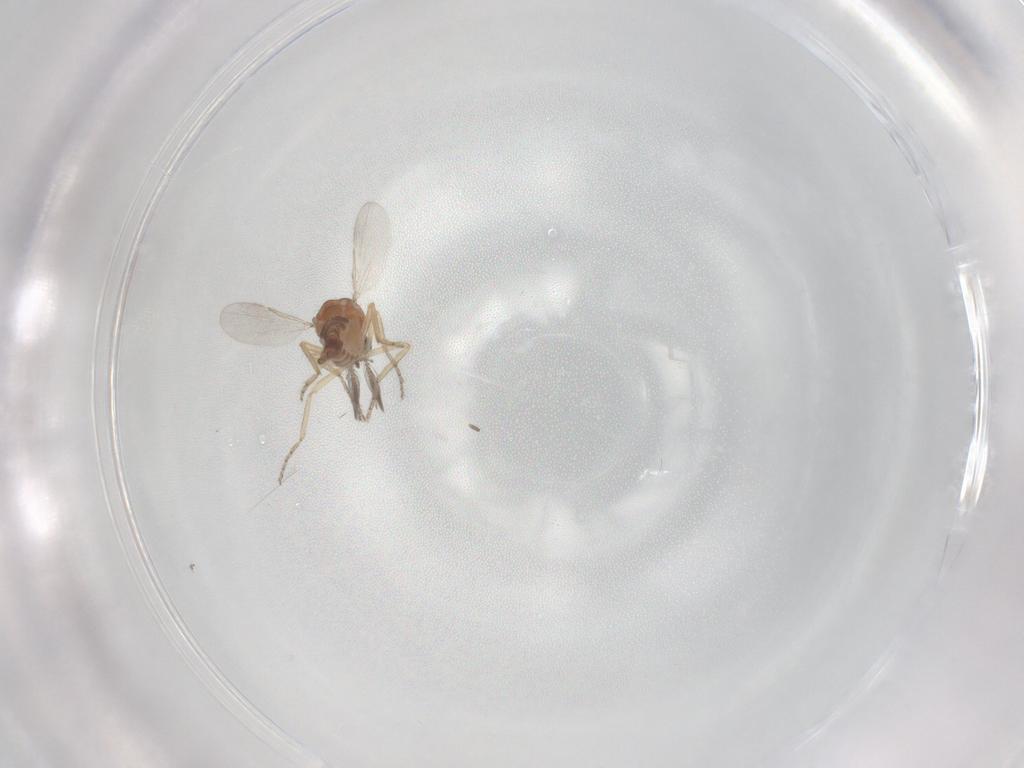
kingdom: Animalia
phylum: Arthropoda
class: Insecta
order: Diptera
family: Ceratopogonidae
